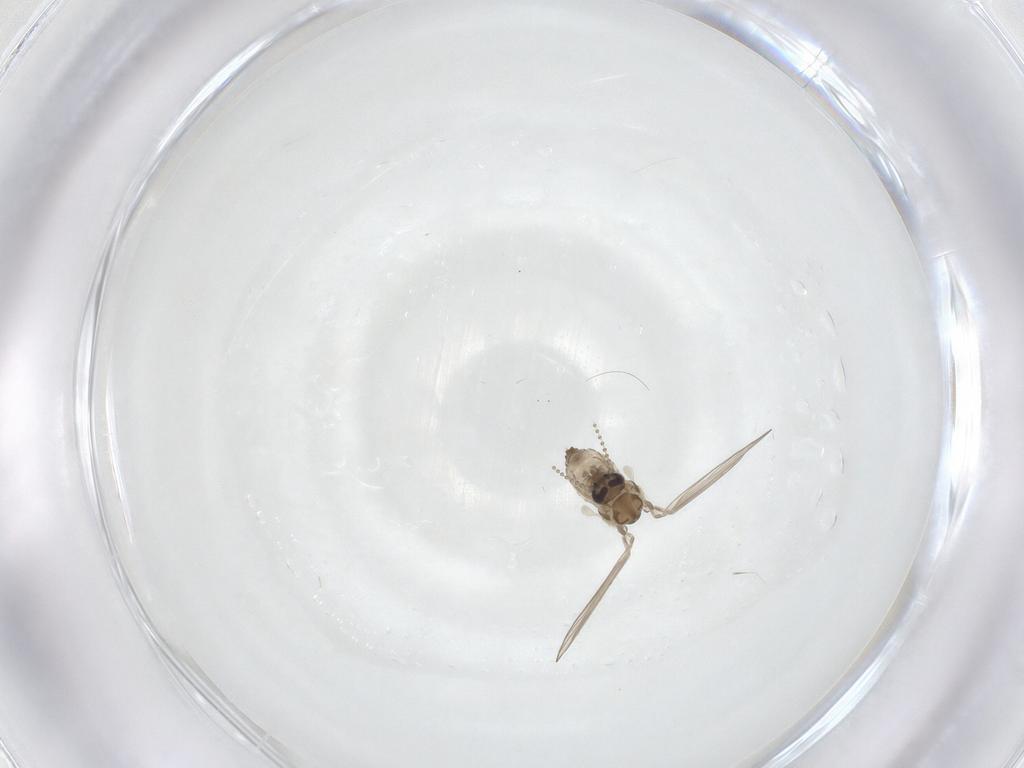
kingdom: Animalia
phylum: Arthropoda
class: Insecta
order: Diptera
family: Psychodidae
